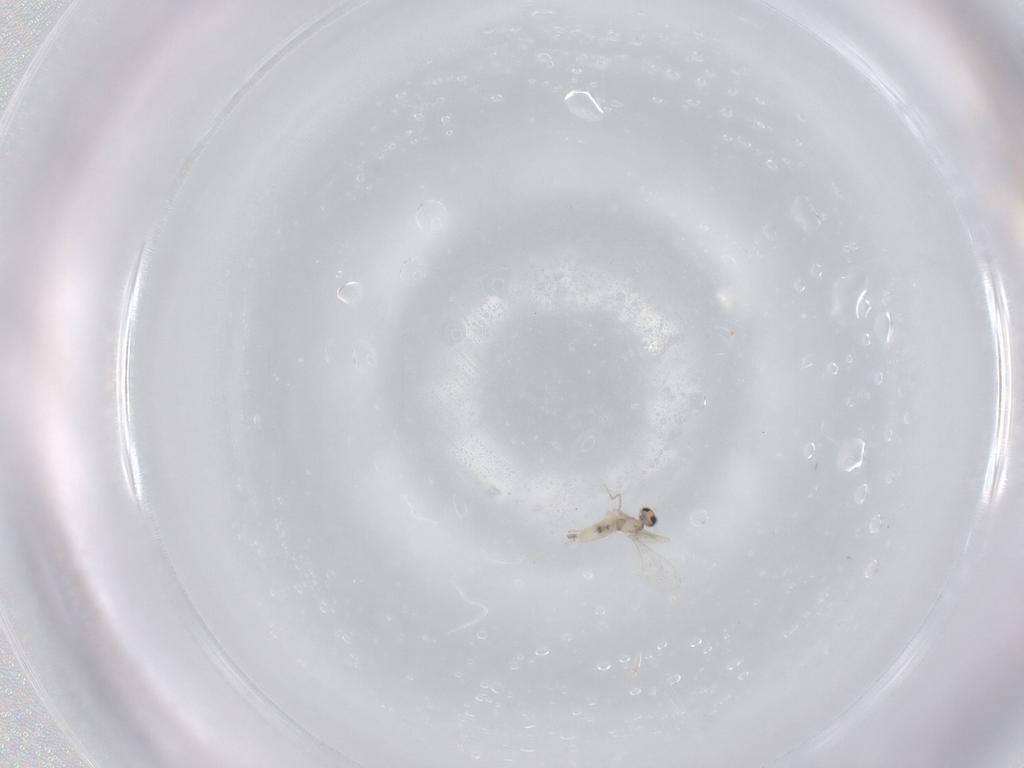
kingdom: Animalia
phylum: Arthropoda
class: Insecta
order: Diptera
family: Cecidomyiidae
